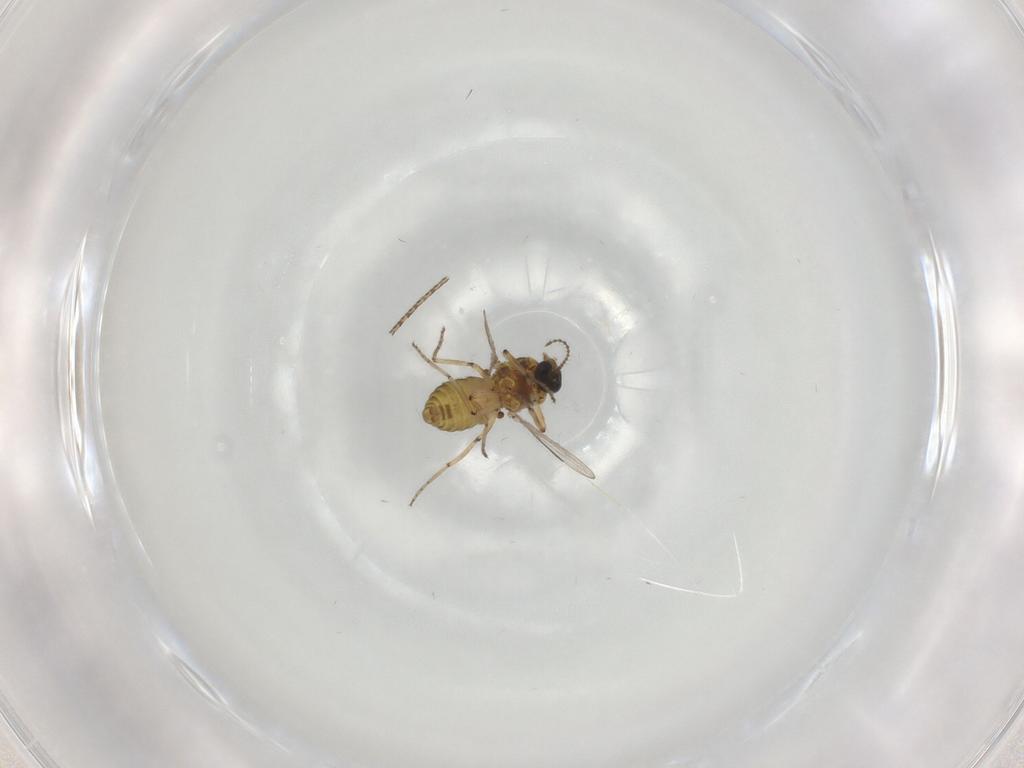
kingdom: Animalia
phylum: Arthropoda
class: Insecta
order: Diptera
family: Ceratopogonidae
